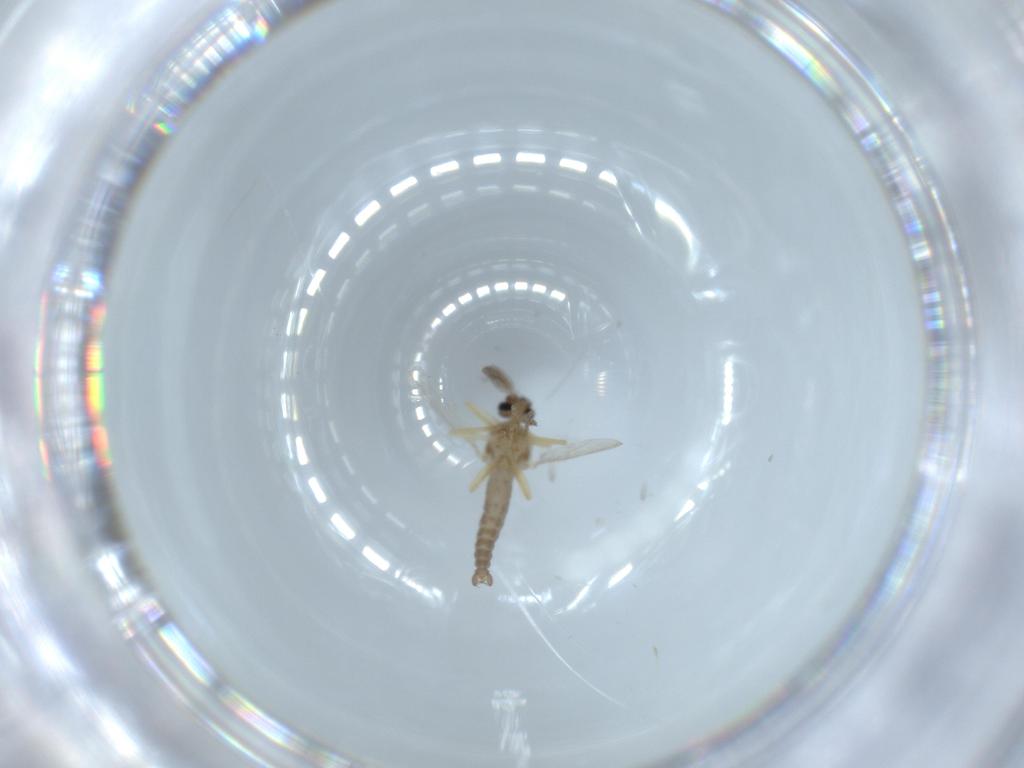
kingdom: Animalia
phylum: Arthropoda
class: Insecta
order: Diptera
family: Ceratopogonidae
